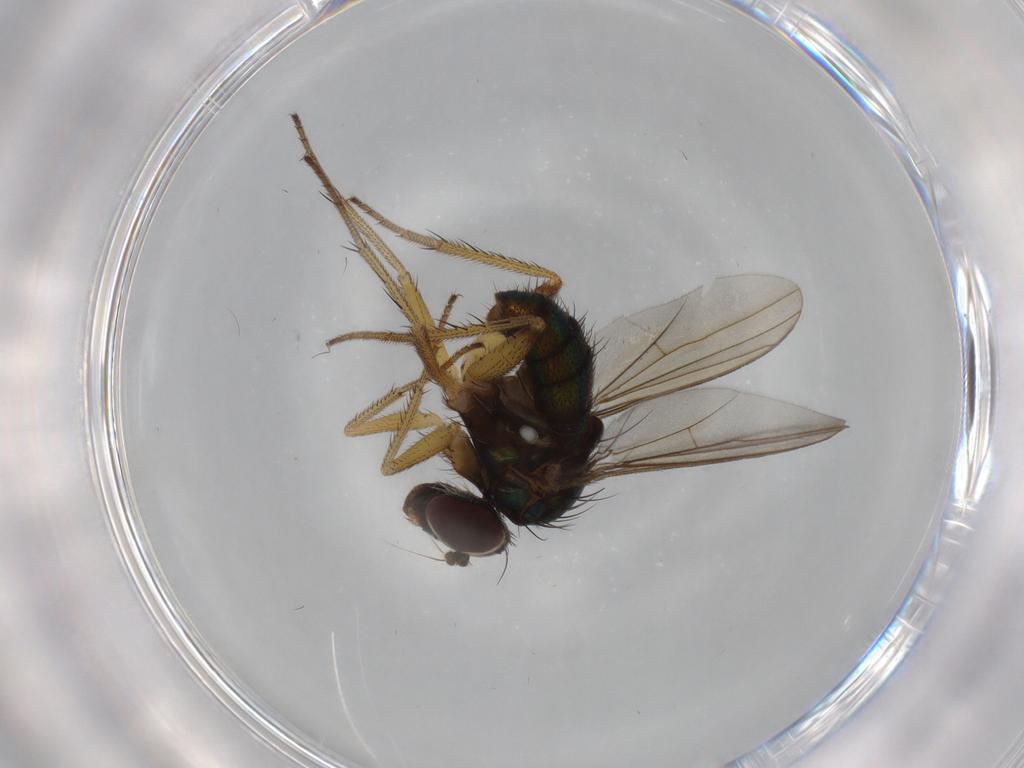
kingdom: Animalia
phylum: Arthropoda
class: Insecta
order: Diptera
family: Dolichopodidae
